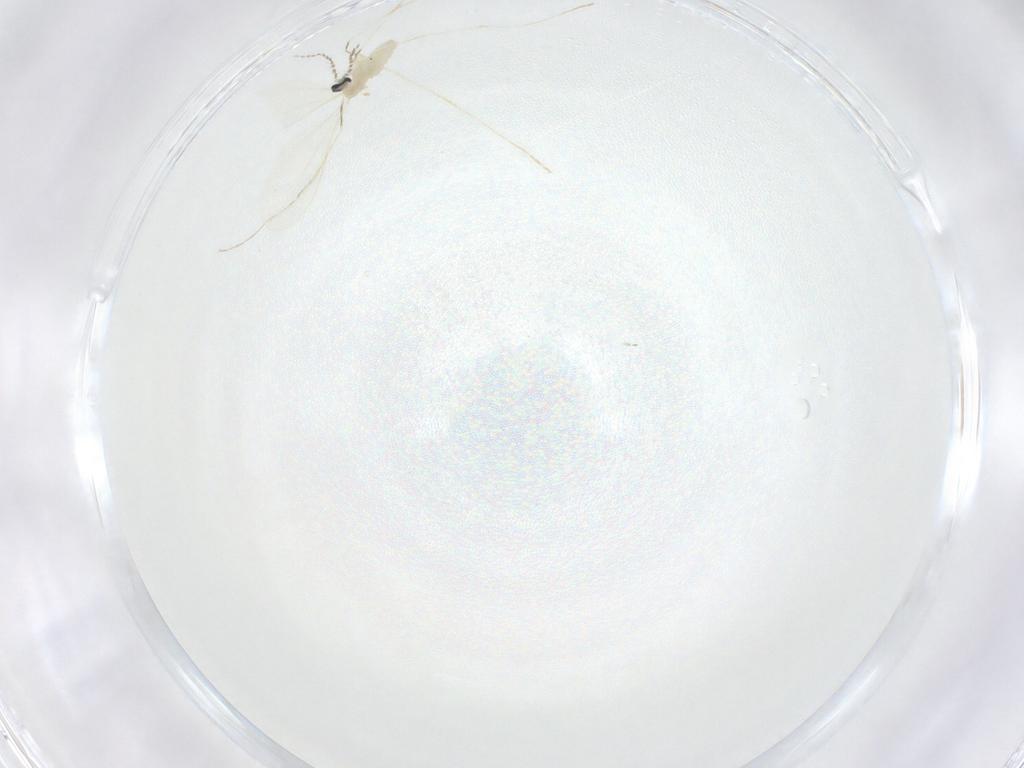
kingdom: Animalia
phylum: Arthropoda
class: Insecta
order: Diptera
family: Cecidomyiidae
